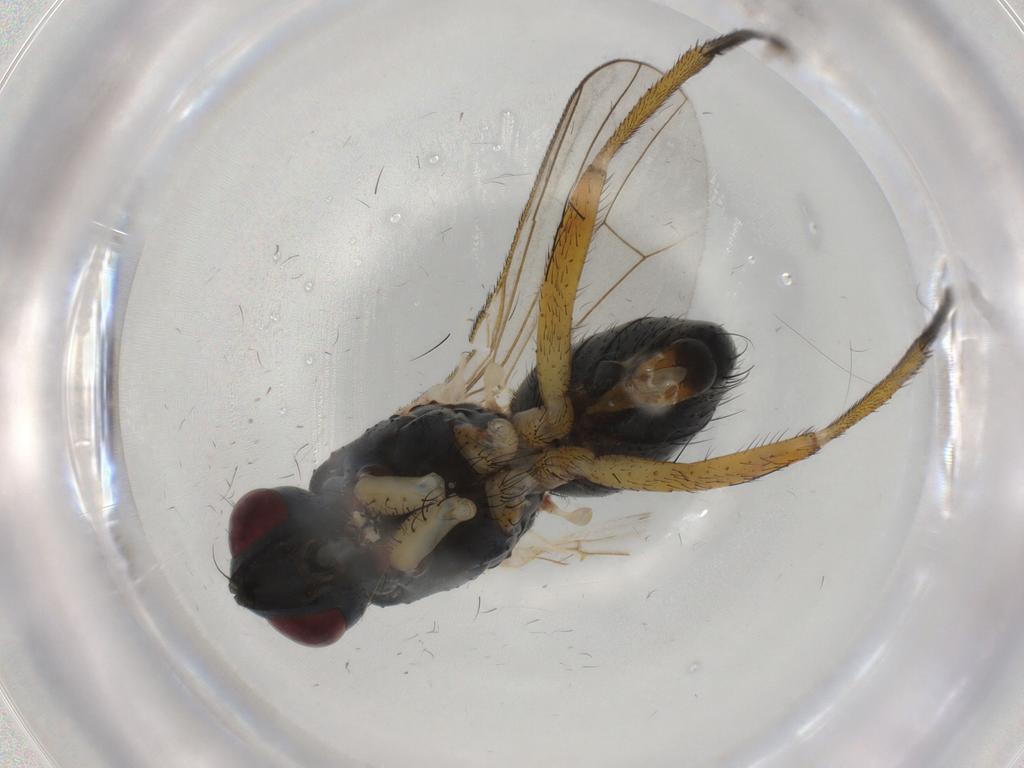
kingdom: Animalia
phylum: Arthropoda
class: Insecta
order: Diptera
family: Muscidae
